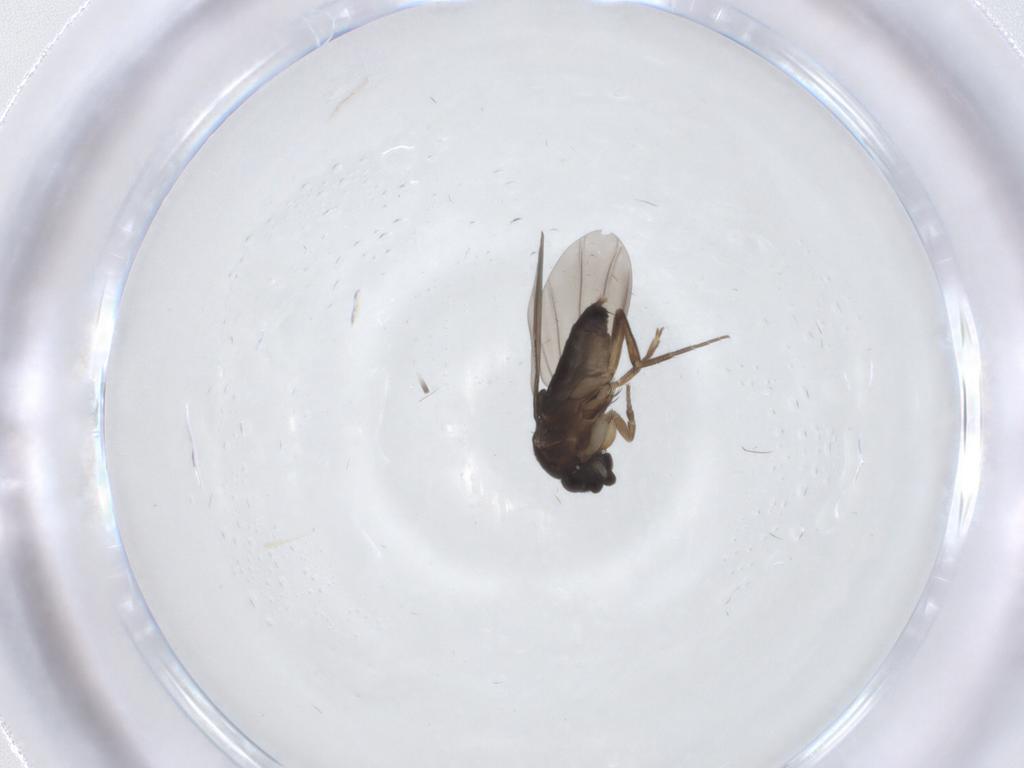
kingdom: Animalia
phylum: Arthropoda
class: Insecta
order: Diptera
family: Phoridae
